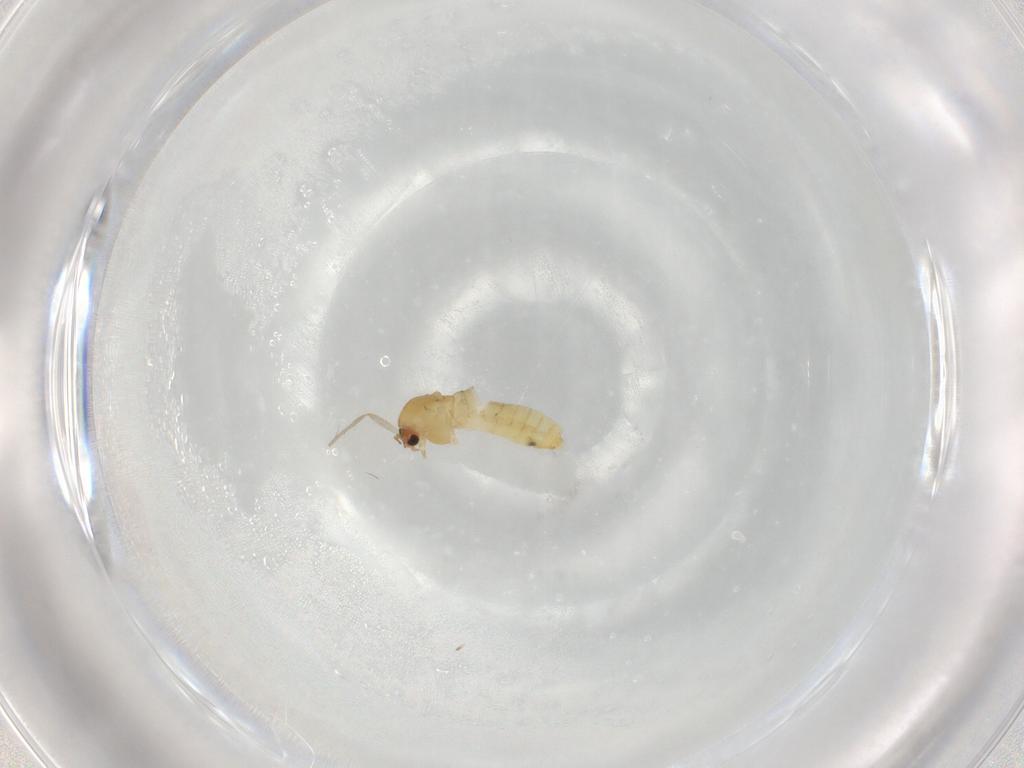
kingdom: Animalia
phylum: Arthropoda
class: Insecta
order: Diptera
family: Chironomidae
